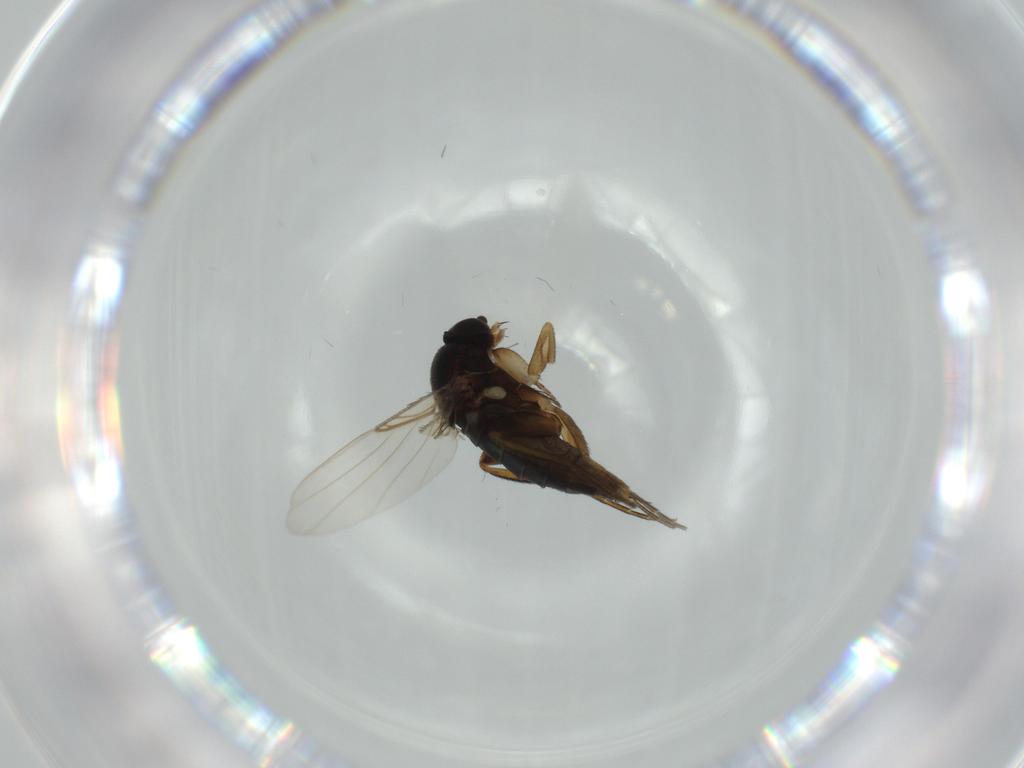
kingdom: Animalia
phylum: Arthropoda
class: Insecta
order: Diptera
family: Phoridae
